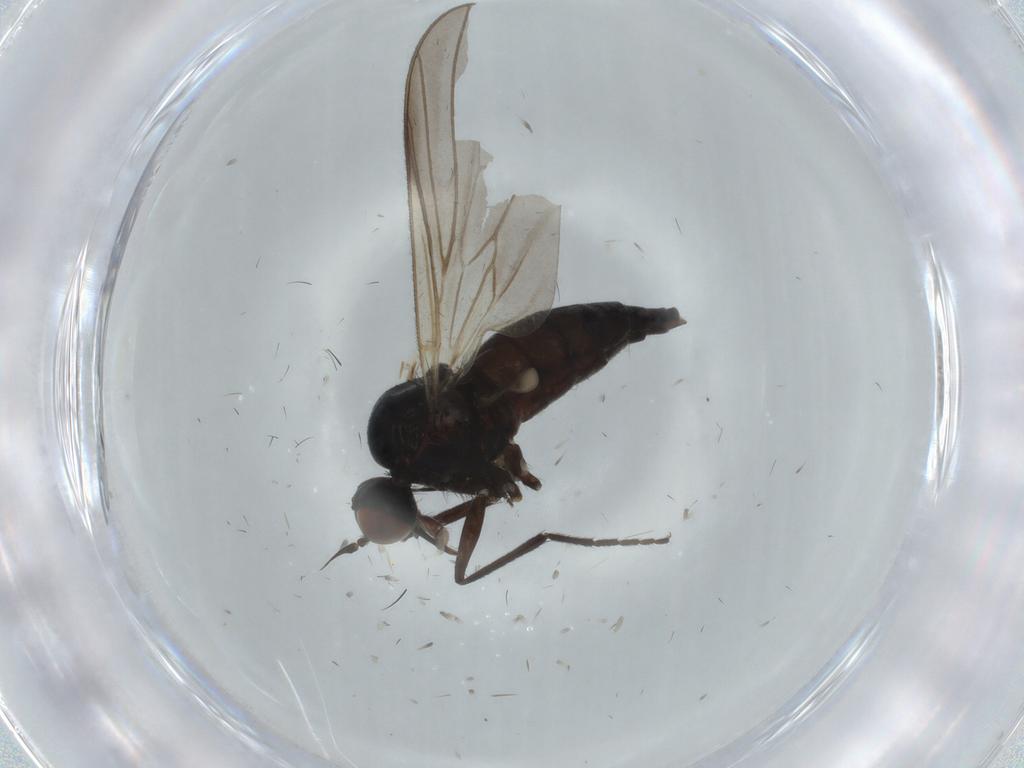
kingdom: Animalia
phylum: Arthropoda
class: Insecta
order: Diptera
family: Empididae
